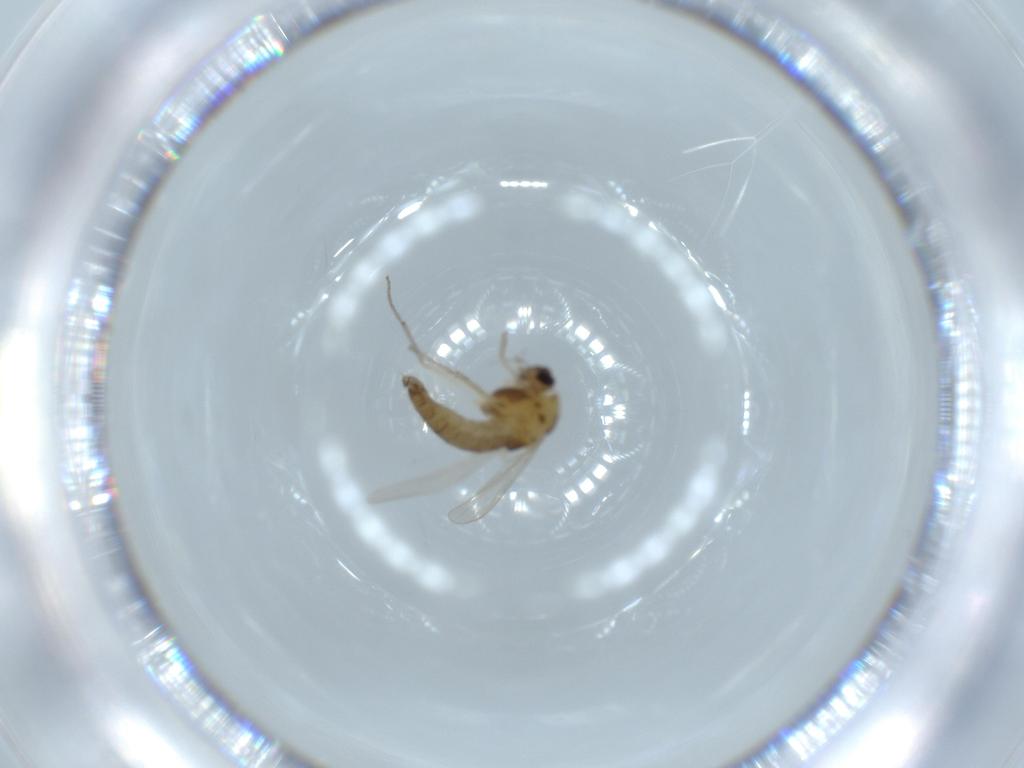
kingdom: Animalia
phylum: Arthropoda
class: Insecta
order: Diptera
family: Chironomidae
